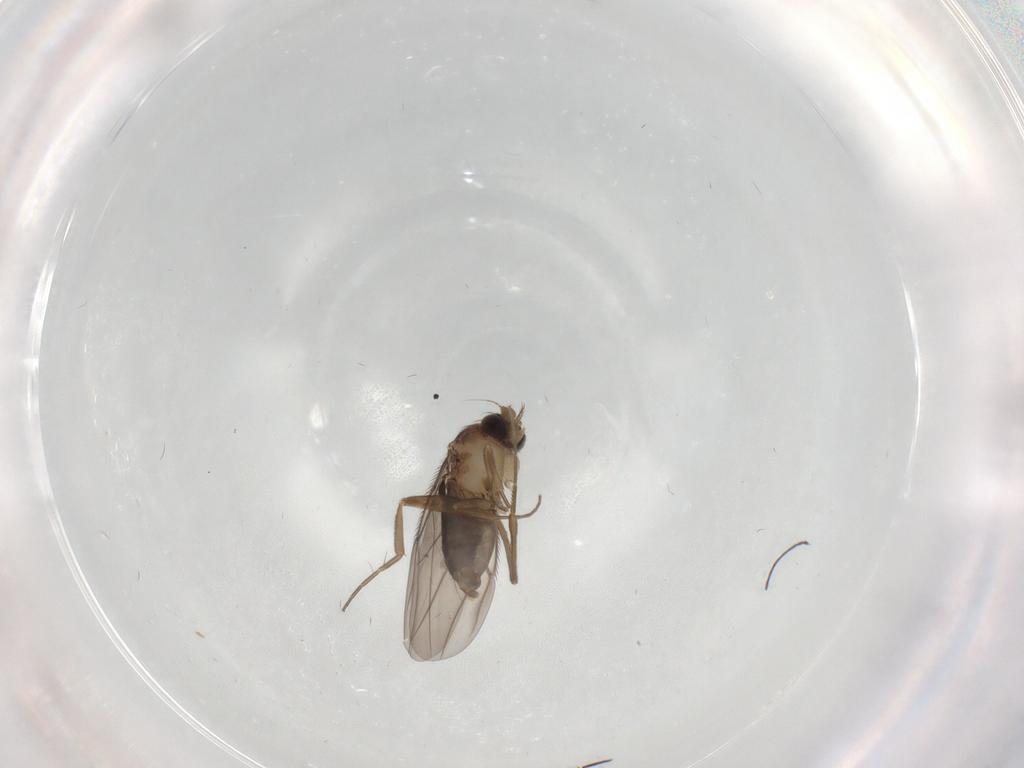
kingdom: Animalia
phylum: Arthropoda
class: Insecta
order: Diptera
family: Phoridae
